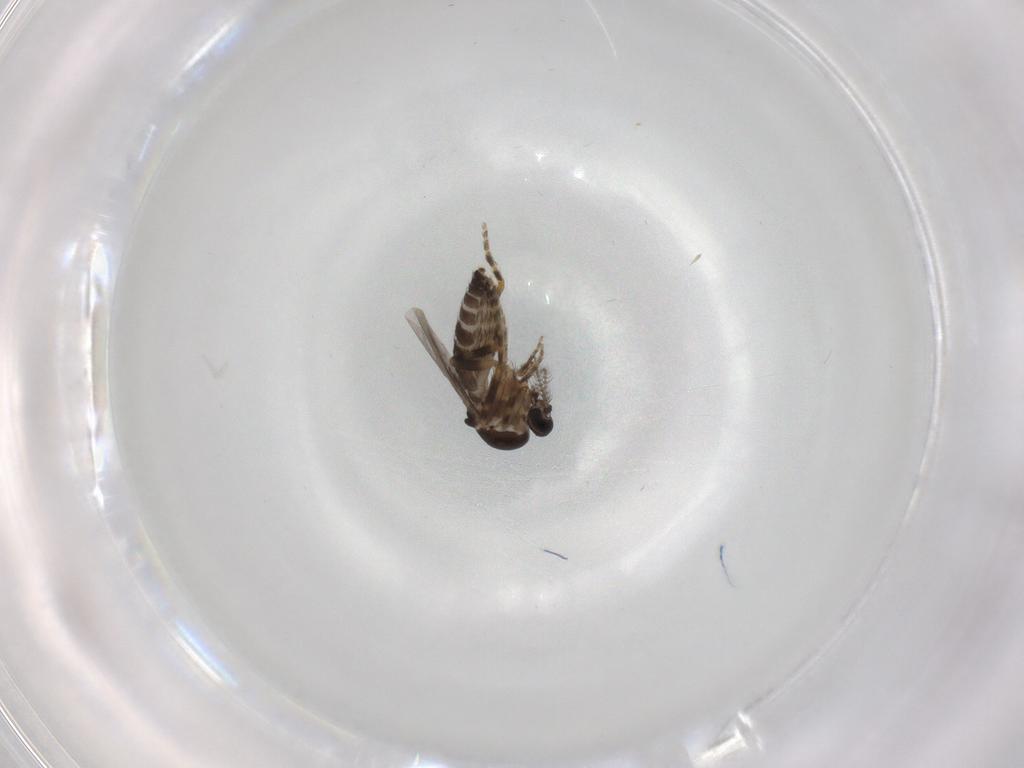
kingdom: Animalia
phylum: Arthropoda
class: Insecta
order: Diptera
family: Ceratopogonidae
